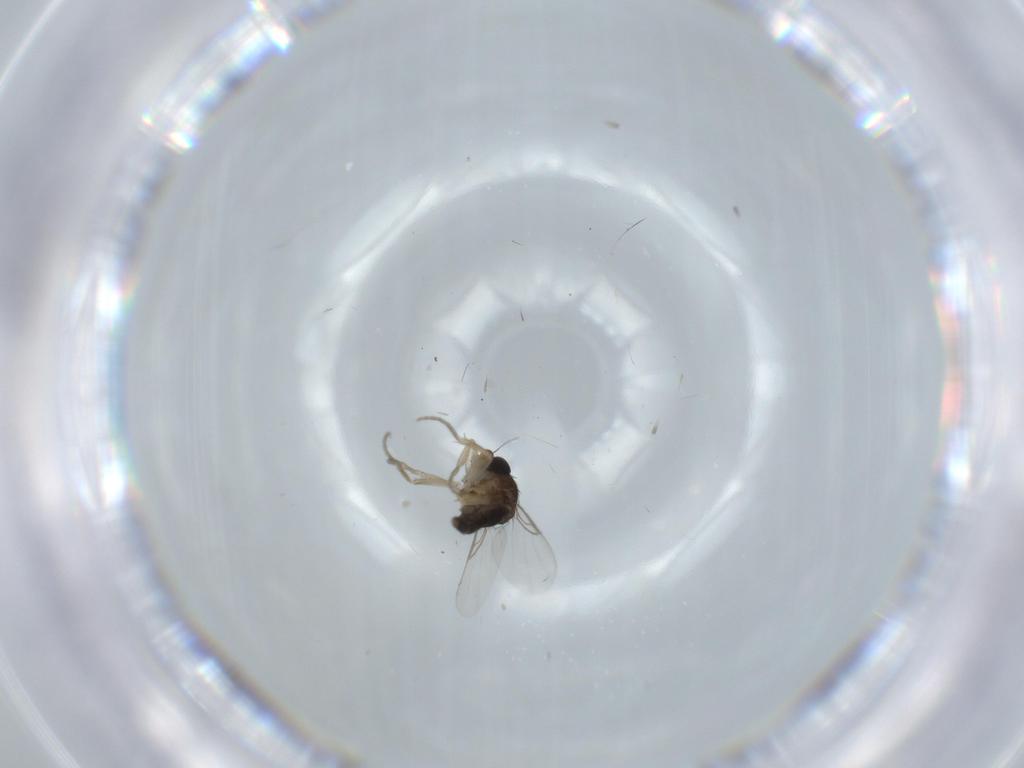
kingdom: Animalia
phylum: Arthropoda
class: Insecta
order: Diptera
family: Phoridae
